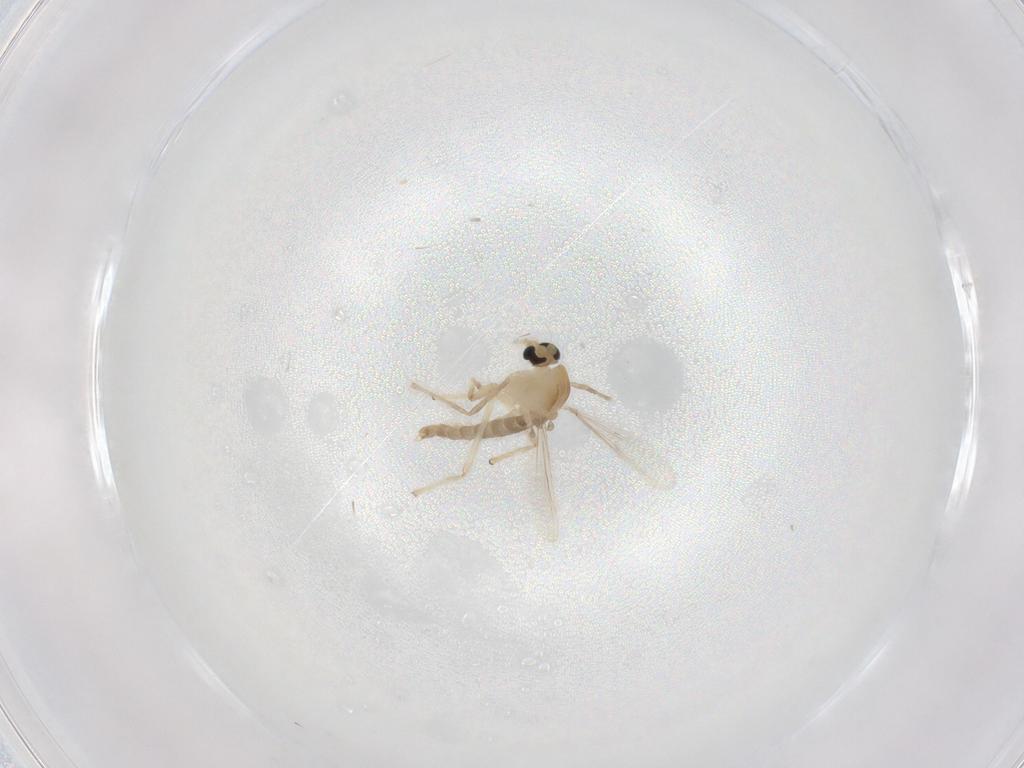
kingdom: Animalia
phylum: Arthropoda
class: Insecta
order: Diptera
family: Chironomidae
